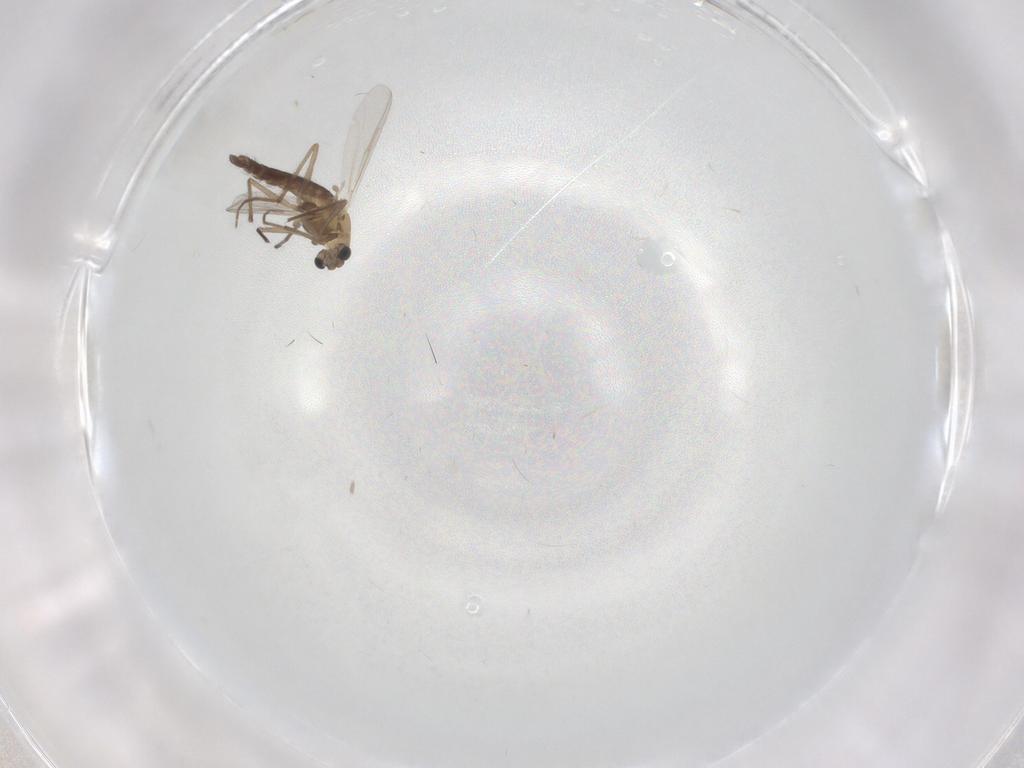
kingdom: Animalia
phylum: Arthropoda
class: Insecta
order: Diptera
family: Chironomidae
